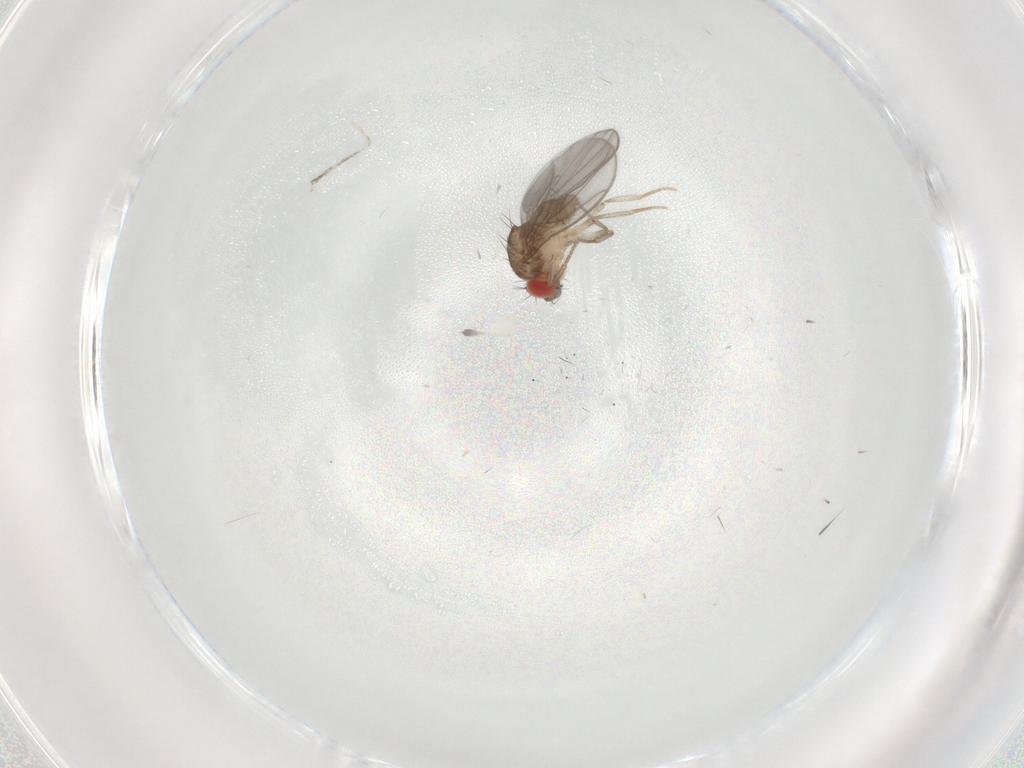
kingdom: Animalia
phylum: Arthropoda
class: Insecta
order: Diptera
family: Drosophilidae
